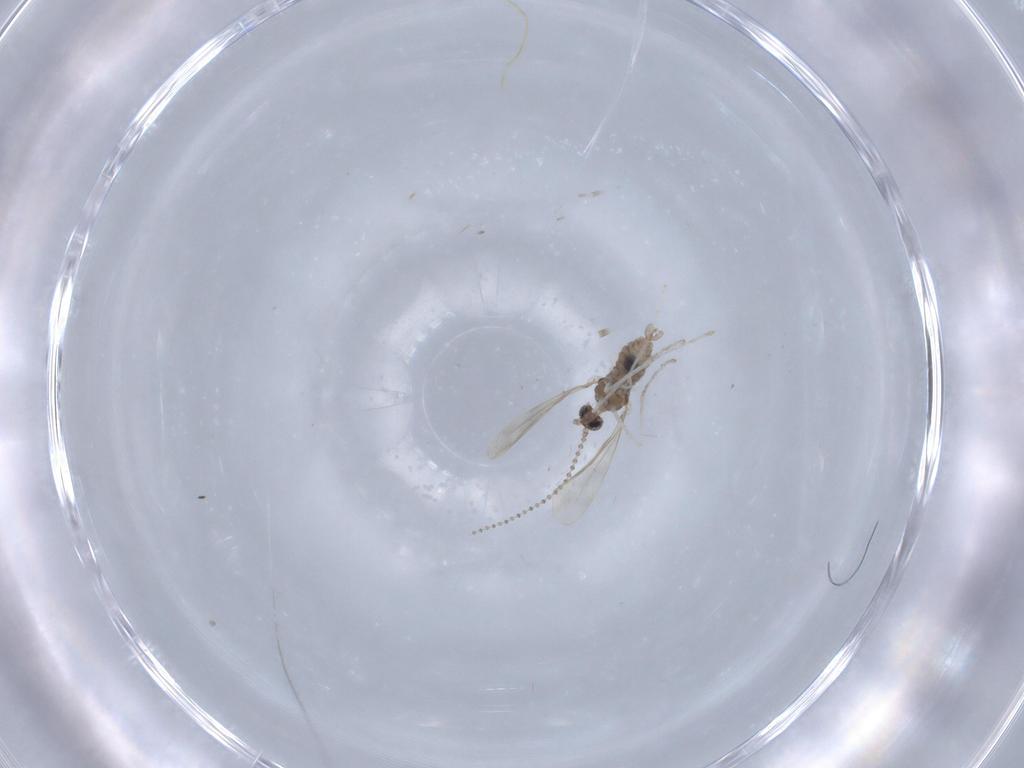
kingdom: Animalia
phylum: Arthropoda
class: Insecta
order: Diptera
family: Cecidomyiidae
